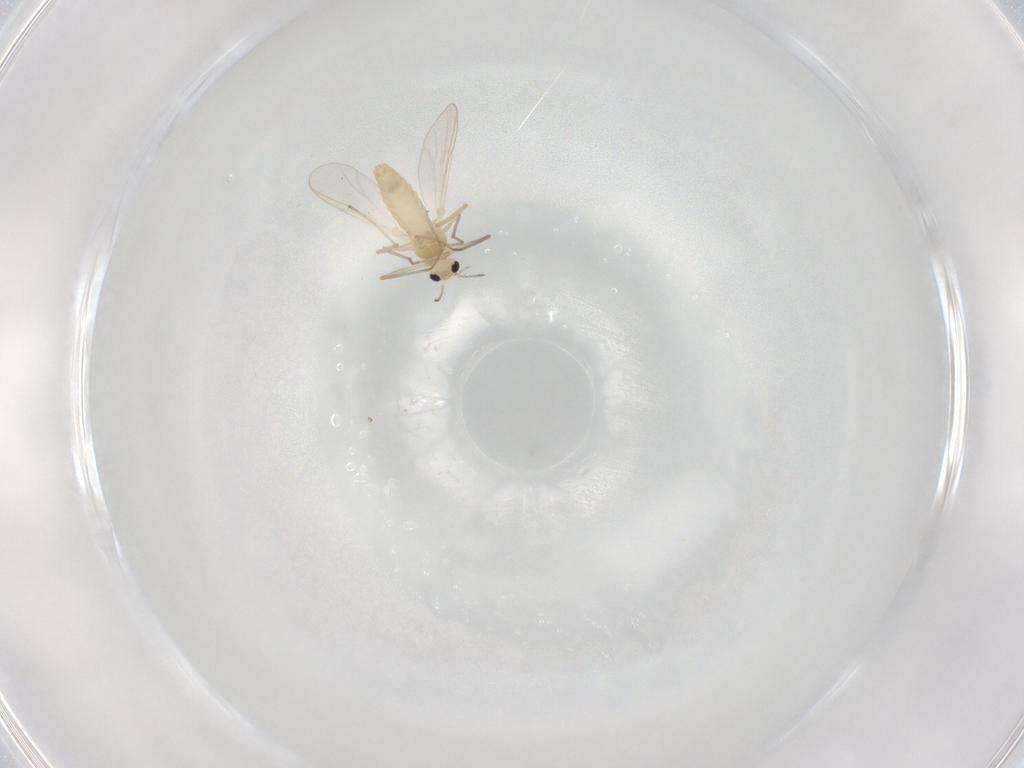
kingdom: Animalia
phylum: Arthropoda
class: Insecta
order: Diptera
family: Chironomidae
